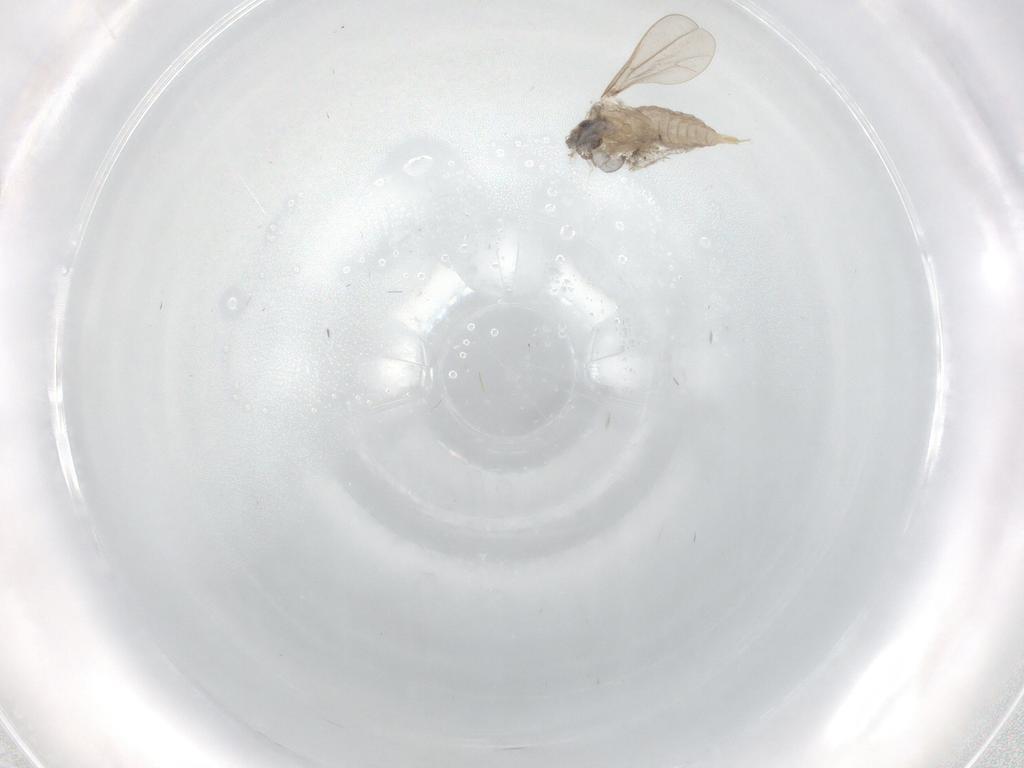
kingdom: Animalia
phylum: Arthropoda
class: Insecta
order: Diptera
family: Cecidomyiidae
